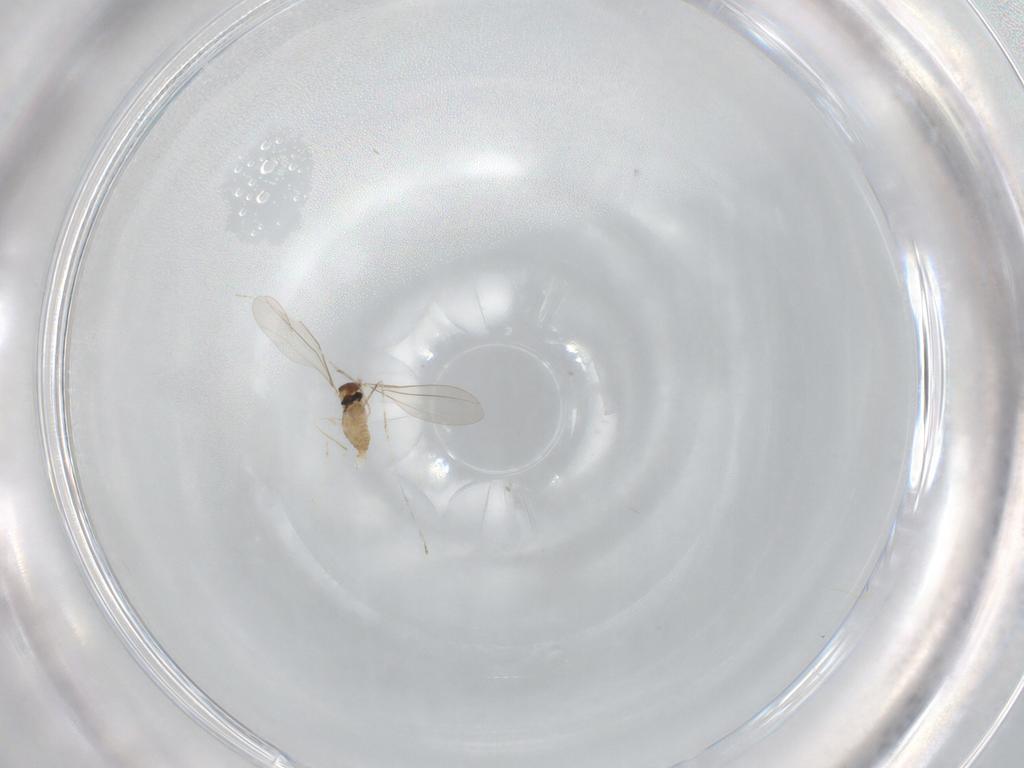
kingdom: Animalia
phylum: Arthropoda
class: Insecta
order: Diptera
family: Cecidomyiidae
